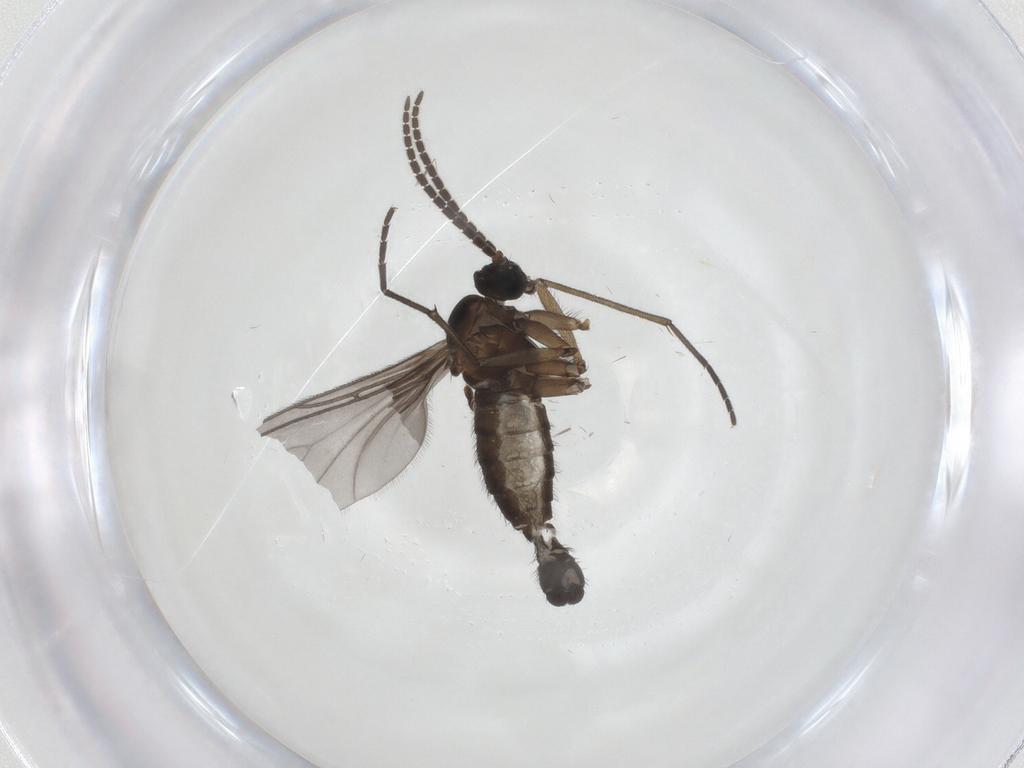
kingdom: Animalia
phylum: Arthropoda
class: Insecta
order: Diptera
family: Sciaridae
